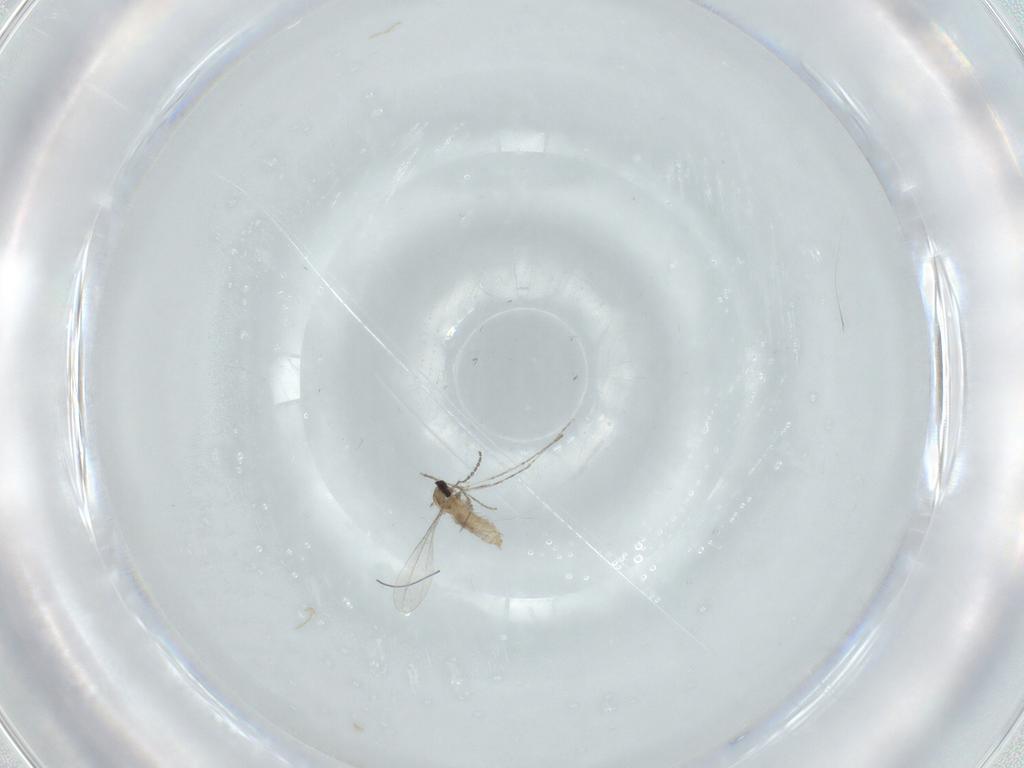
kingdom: Animalia
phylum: Arthropoda
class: Insecta
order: Diptera
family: Cecidomyiidae
